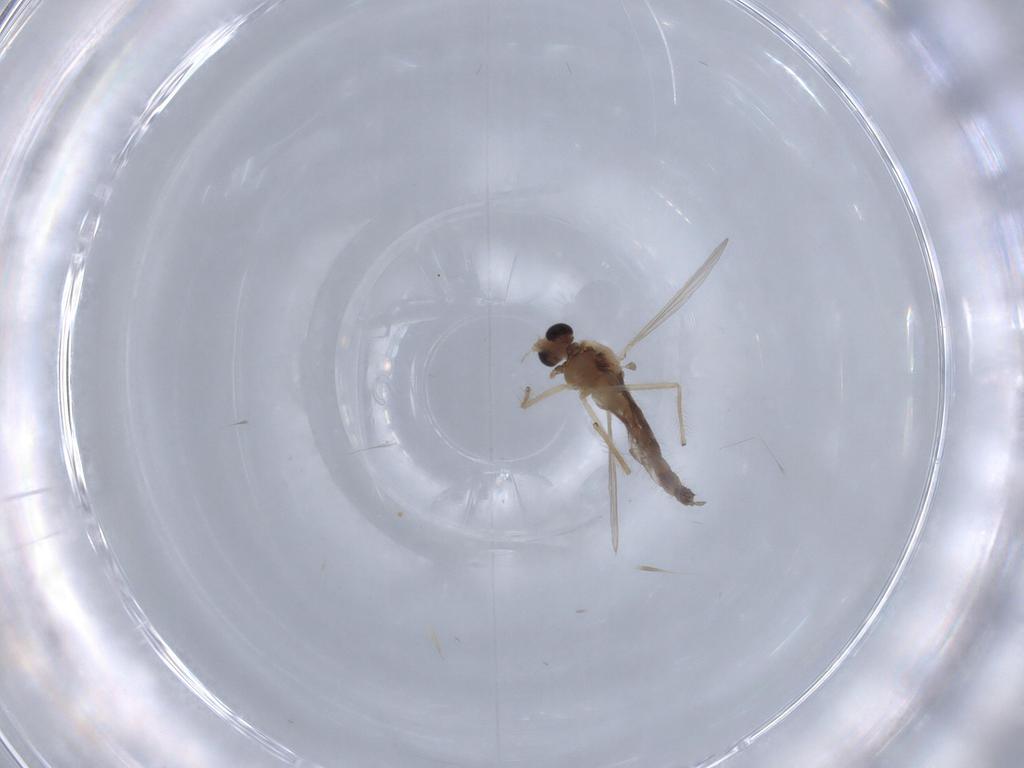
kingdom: Animalia
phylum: Arthropoda
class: Insecta
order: Diptera
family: Chironomidae
